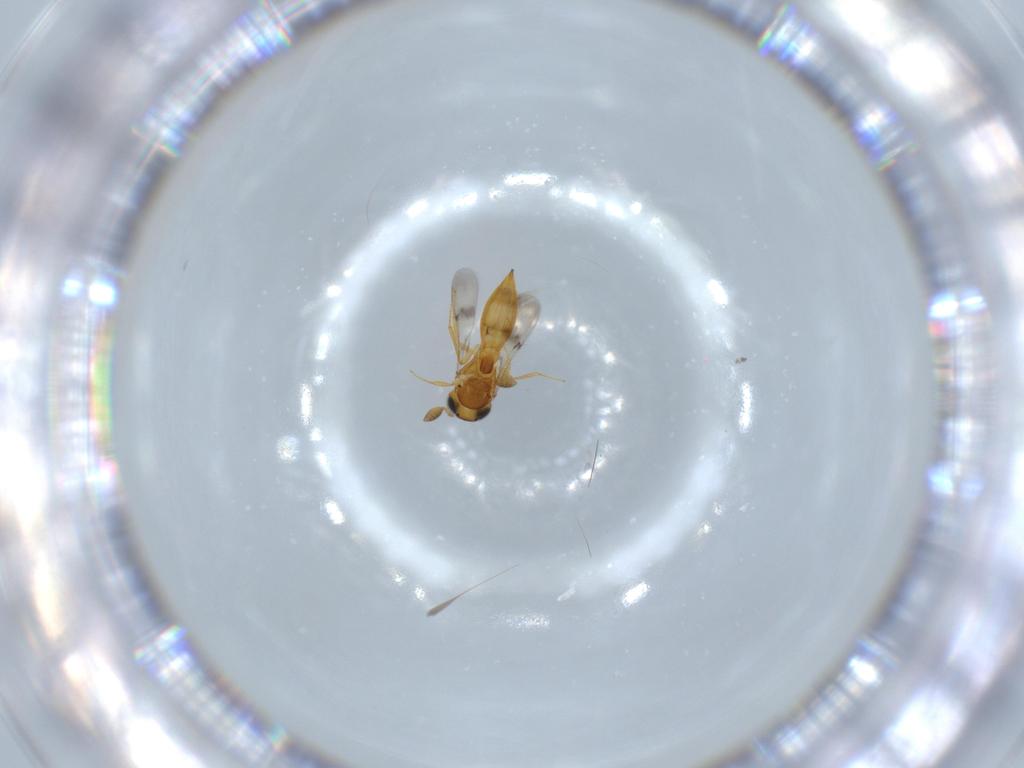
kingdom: Animalia
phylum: Arthropoda
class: Insecta
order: Hymenoptera
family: Scelionidae
